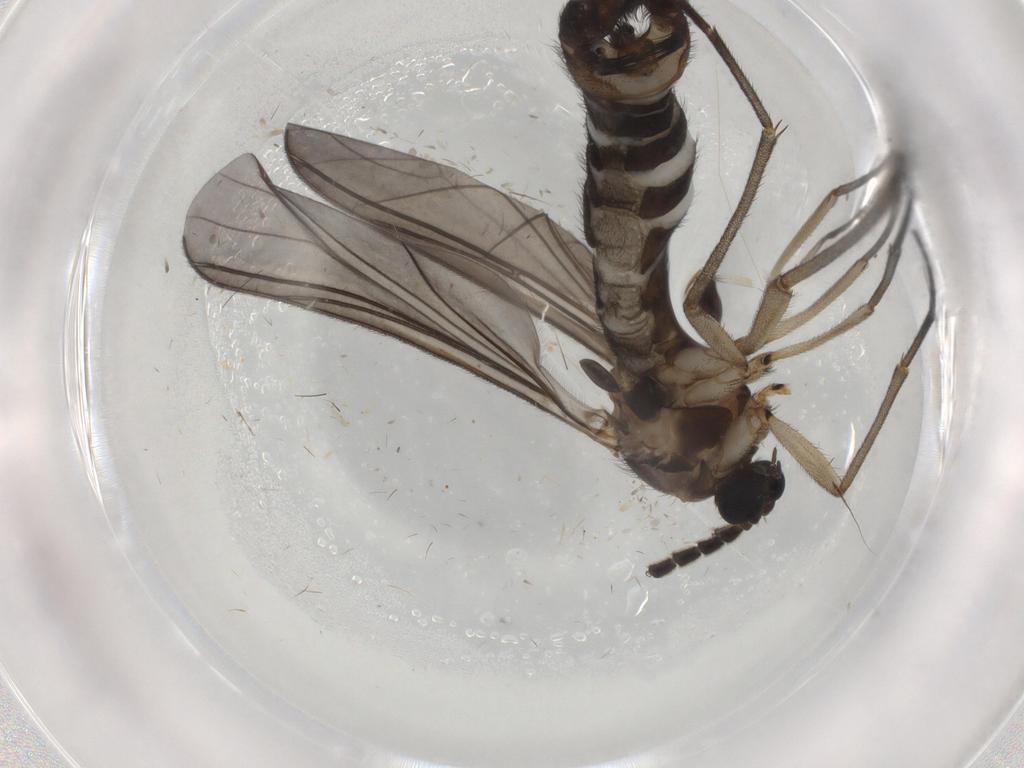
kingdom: Animalia
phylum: Arthropoda
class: Insecta
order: Diptera
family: Sciaridae
